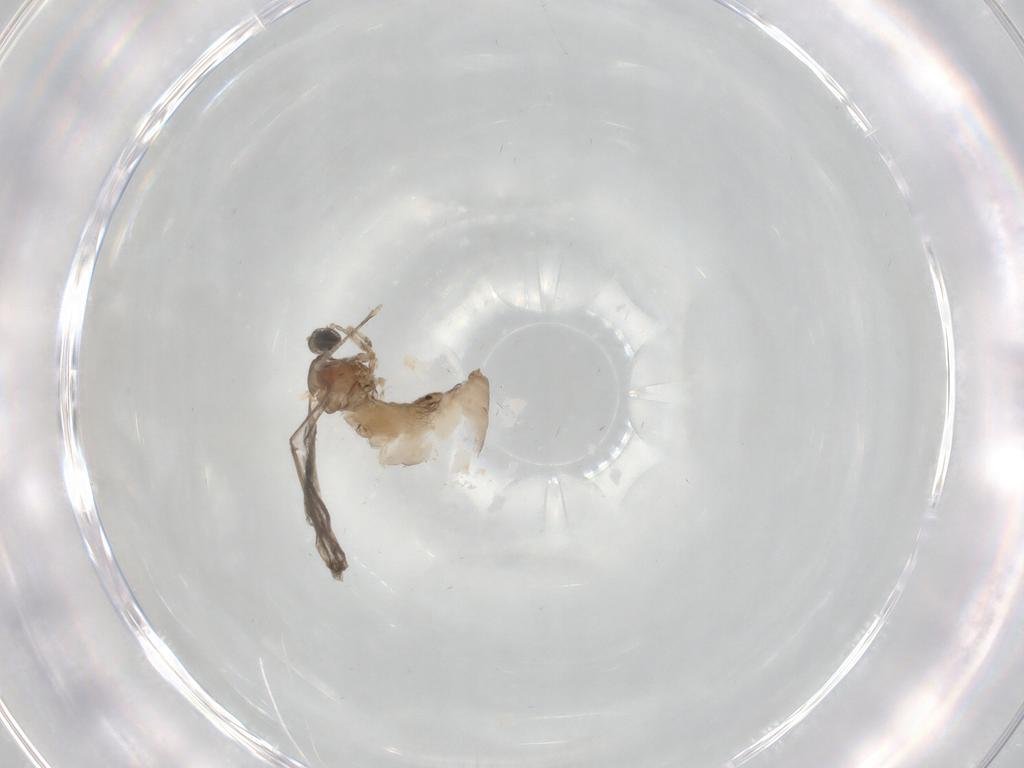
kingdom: Animalia
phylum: Arthropoda
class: Insecta
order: Diptera
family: Sciaridae
